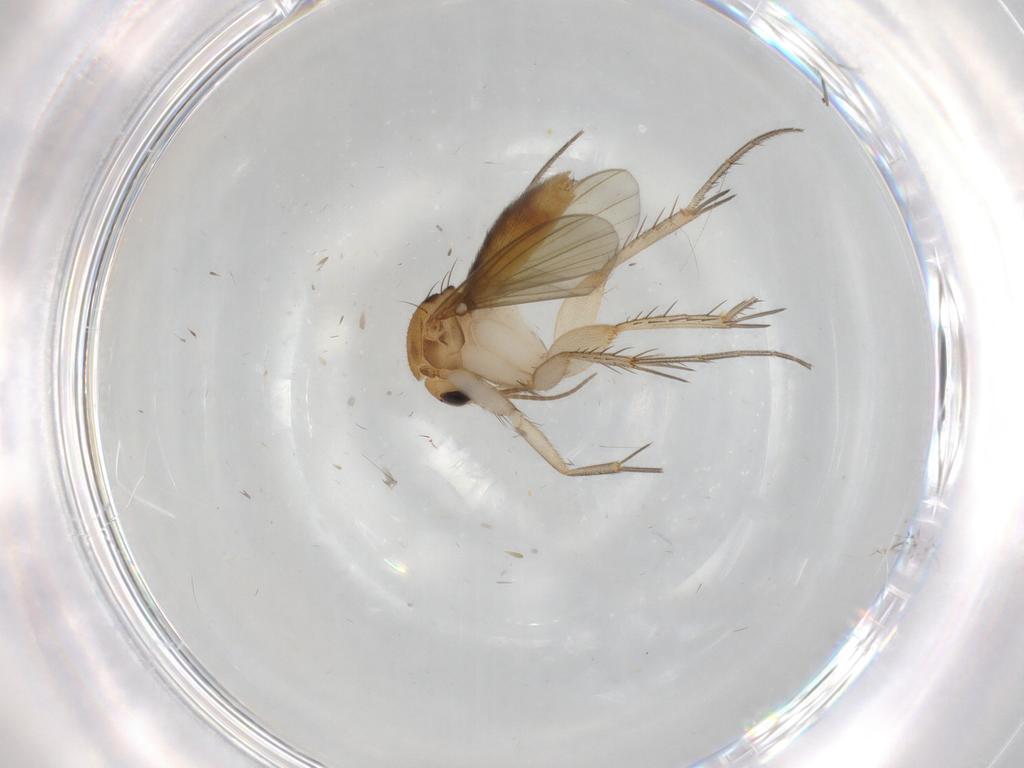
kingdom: Animalia
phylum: Arthropoda
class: Insecta
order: Diptera
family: Mycetophilidae
